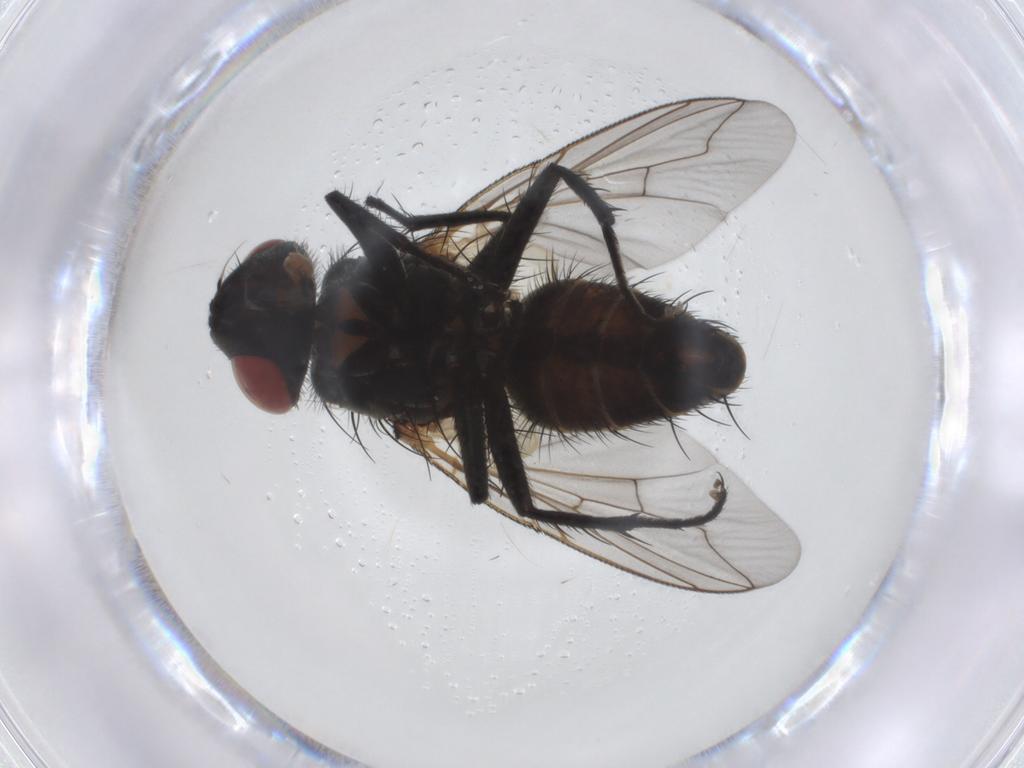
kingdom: Animalia
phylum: Arthropoda
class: Insecta
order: Diptera
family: Sarcophagidae
